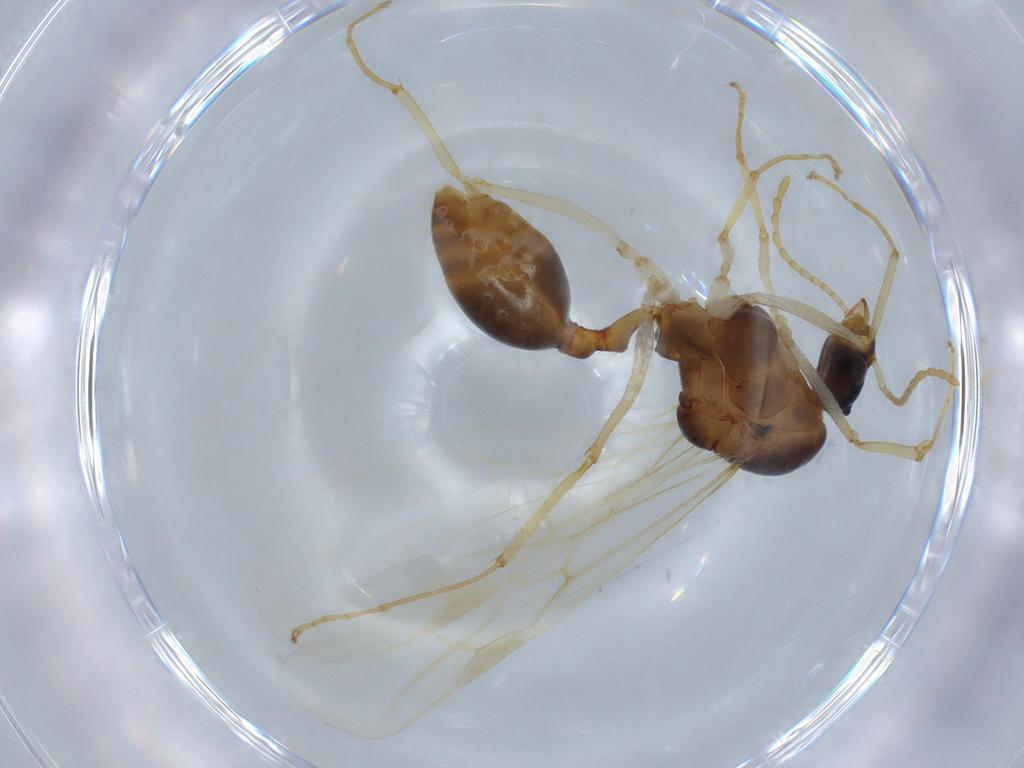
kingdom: Animalia
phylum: Arthropoda
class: Insecta
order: Hymenoptera
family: Formicidae
